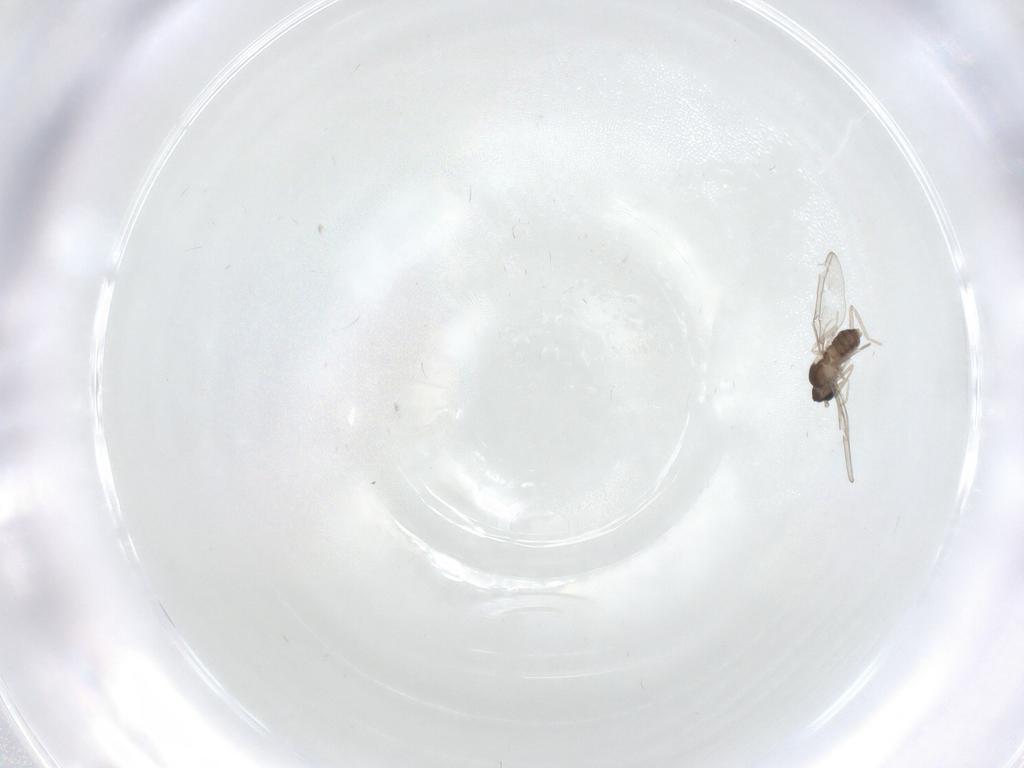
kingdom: Animalia
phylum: Arthropoda
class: Insecta
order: Diptera
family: Cecidomyiidae
